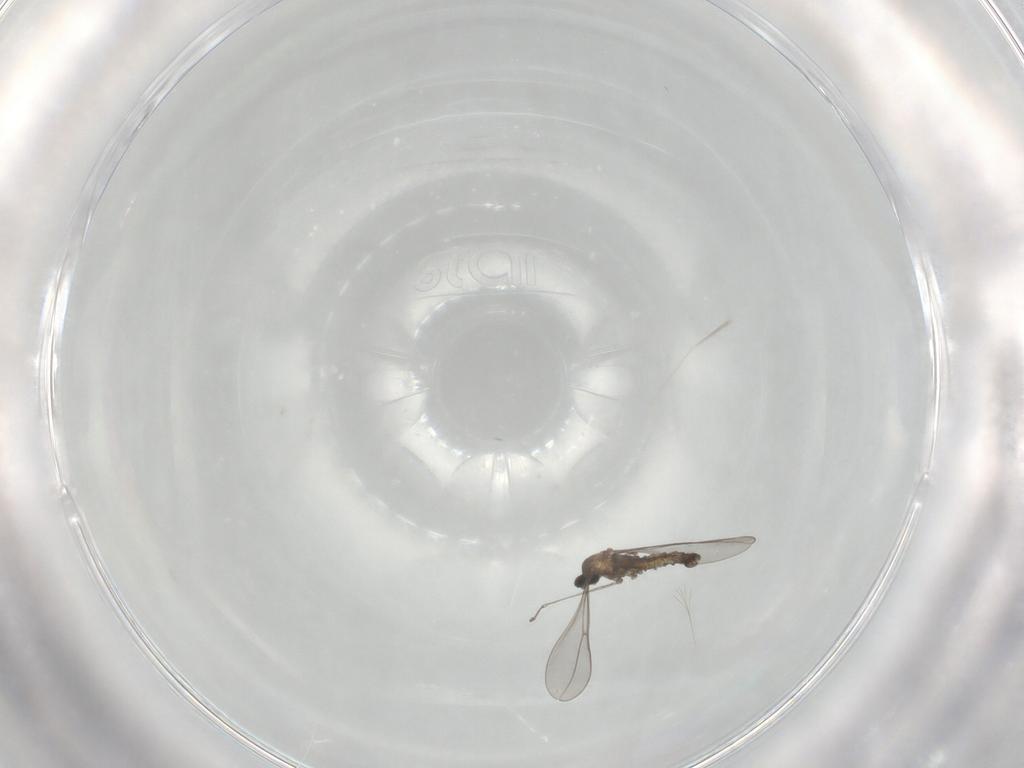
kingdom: Animalia
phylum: Arthropoda
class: Insecta
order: Diptera
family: Cecidomyiidae
